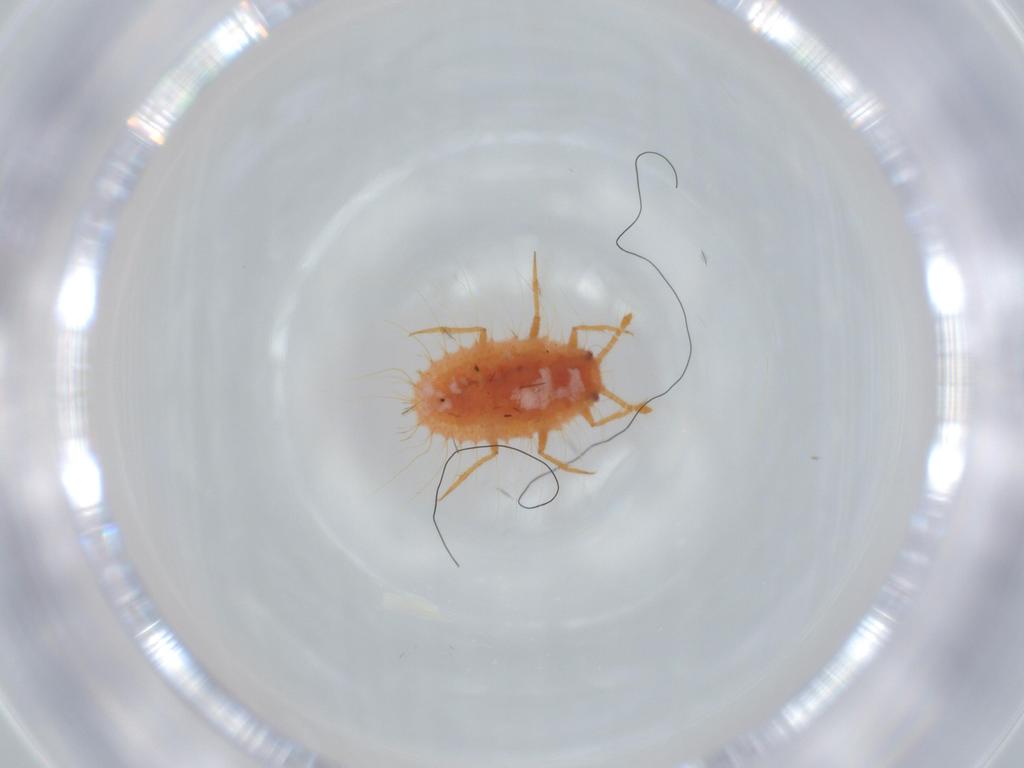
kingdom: Animalia
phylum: Arthropoda
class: Insecta
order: Hemiptera
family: Coccoidea_incertae_sedis
